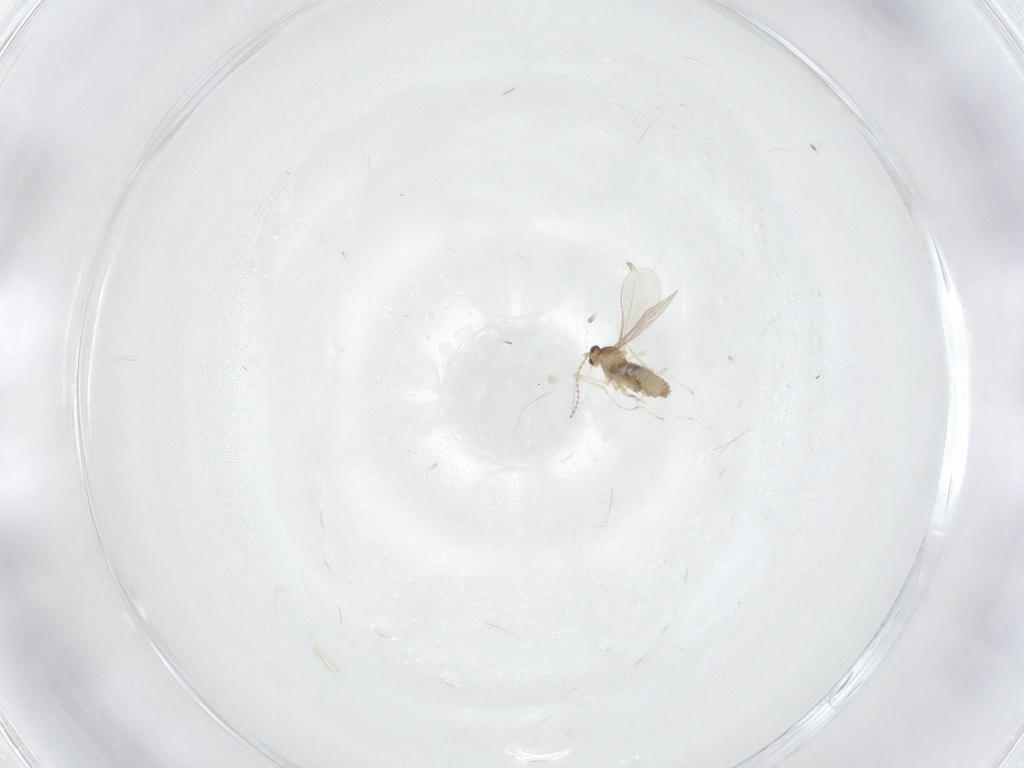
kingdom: Animalia
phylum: Arthropoda
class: Insecta
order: Diptera
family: Cecidomyiidae
